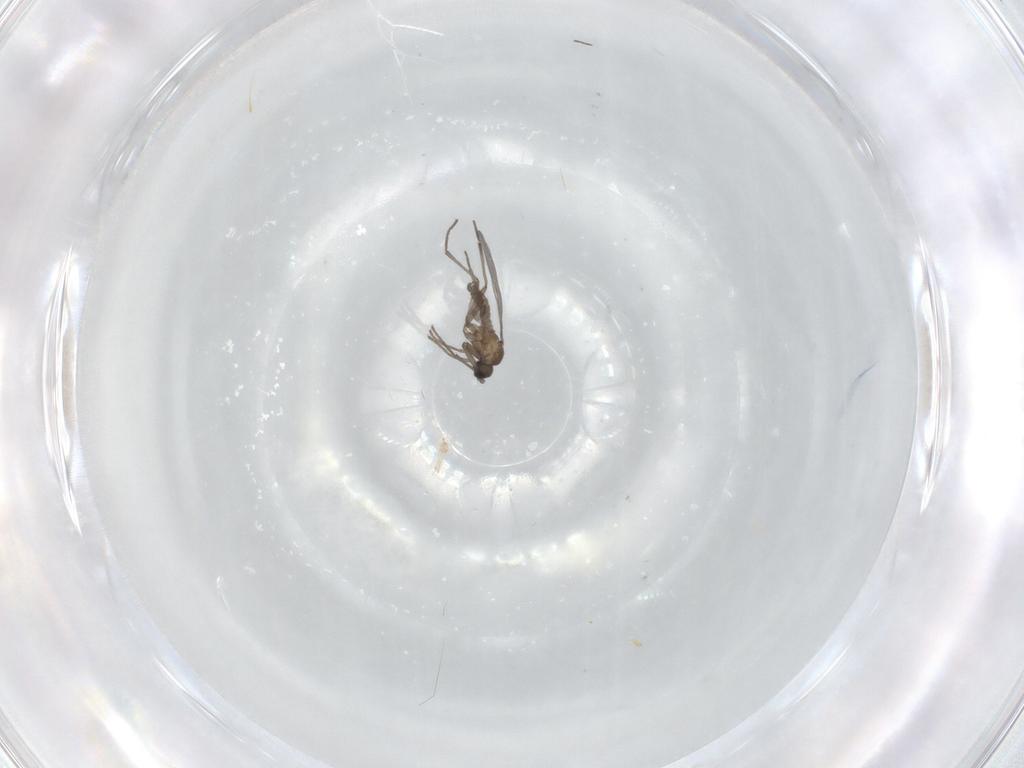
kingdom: Animalia
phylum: Arthropoda
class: Insecta
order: Diptera
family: Sciaridae
